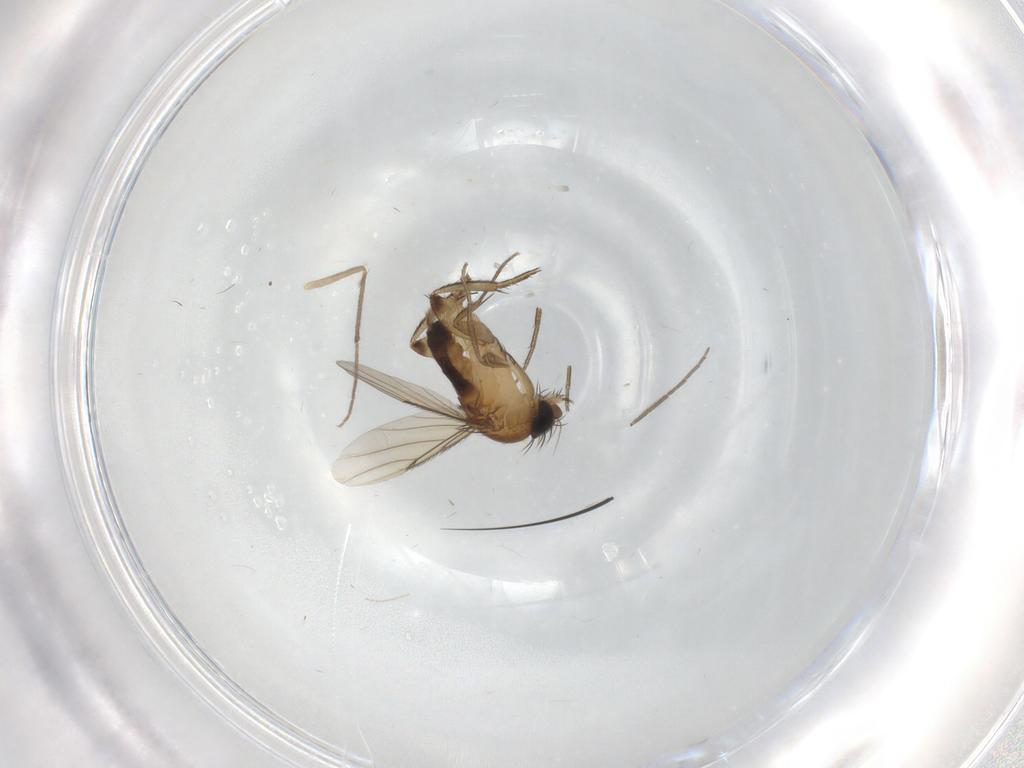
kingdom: Animalia
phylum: Arthropoda
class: Insecta
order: Diptera
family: Phoridae
